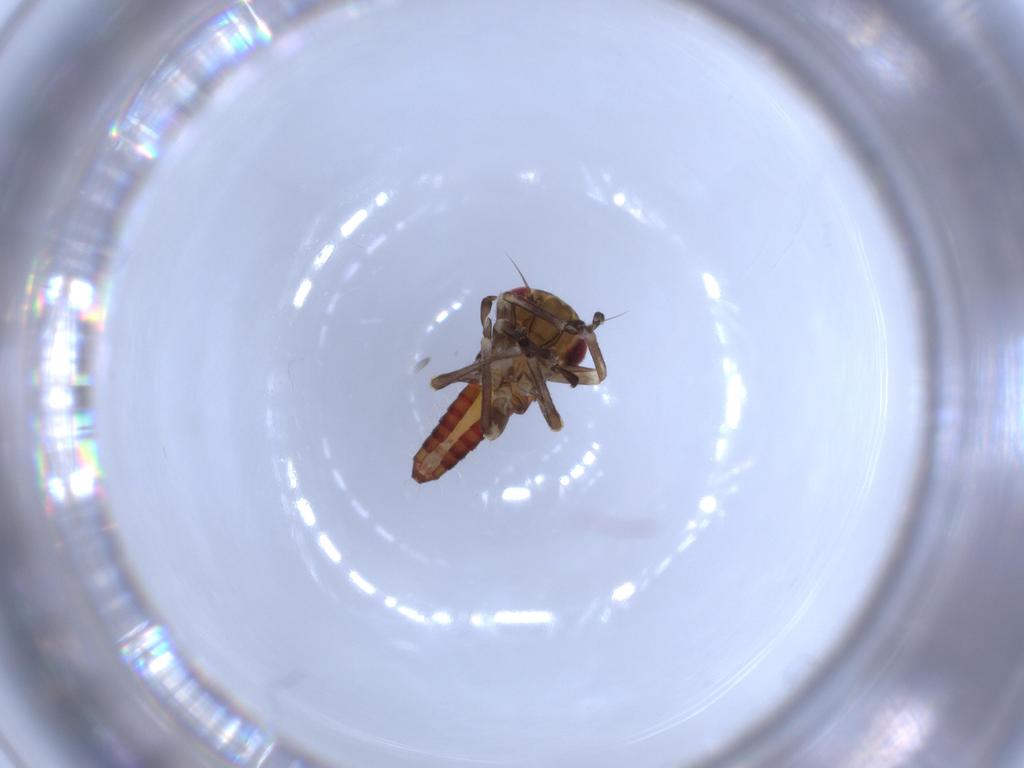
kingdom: Animalia
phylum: Arthropoda
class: Insecta
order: Hemiptera
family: Cicadellidae
